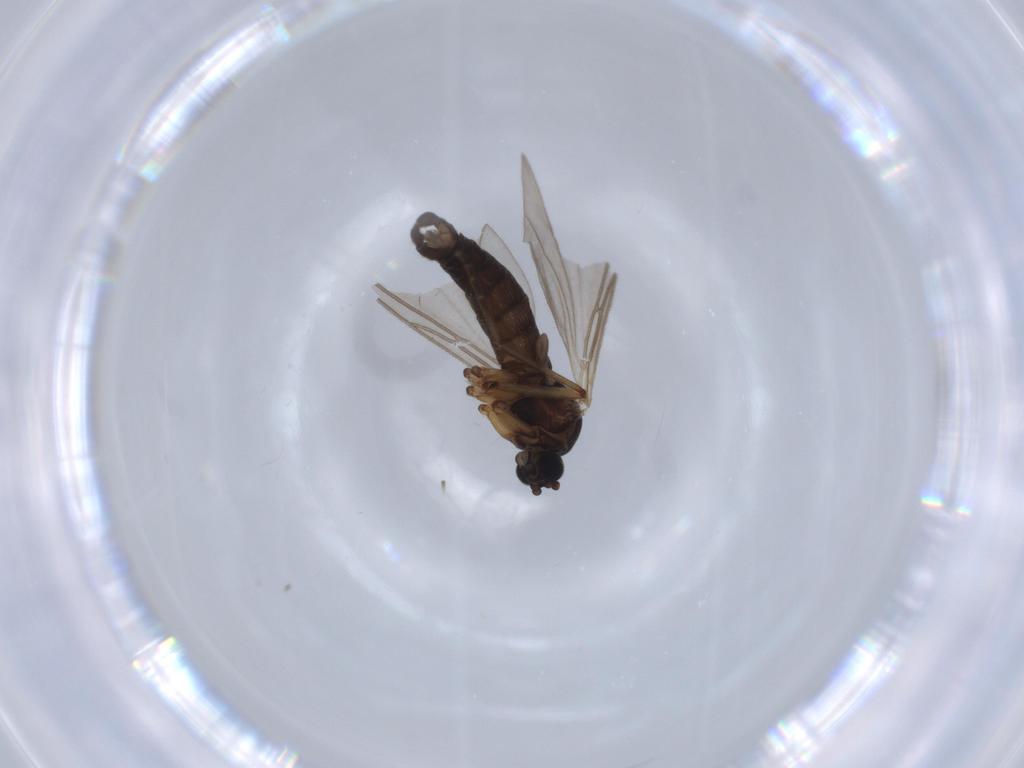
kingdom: Animalia
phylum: Arthropoda
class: Insecta
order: Diptera
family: Sciaridae
